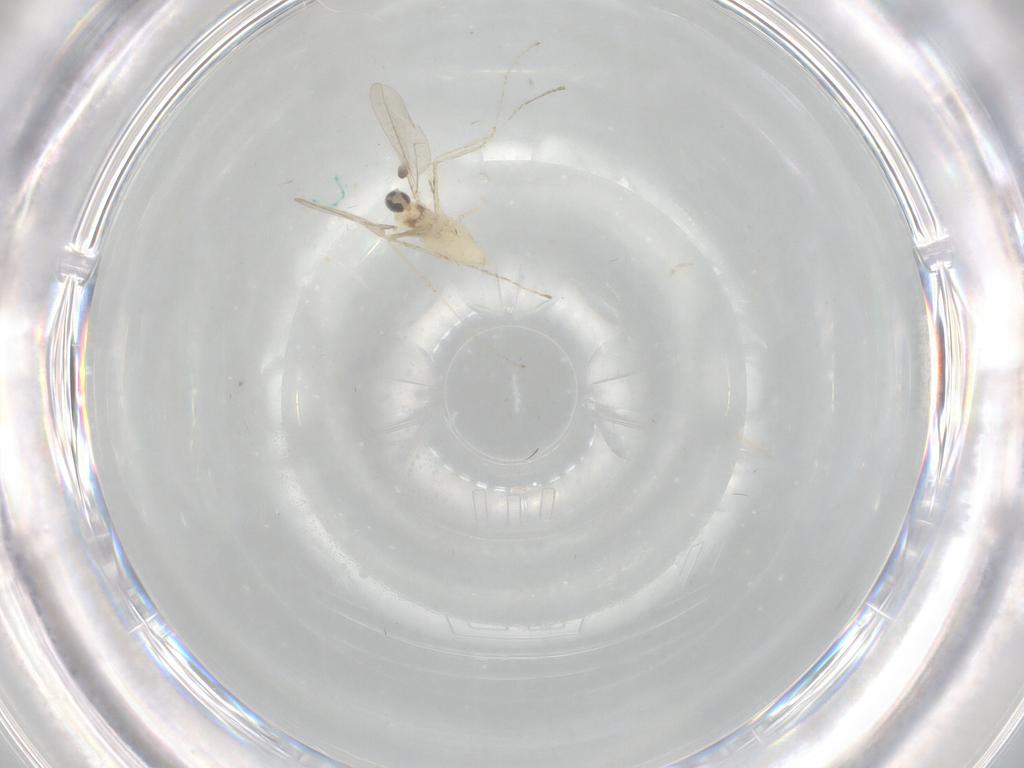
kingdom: Animalia
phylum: Arthropoda
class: Insecta
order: Diptera
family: Cecidomyiidae
